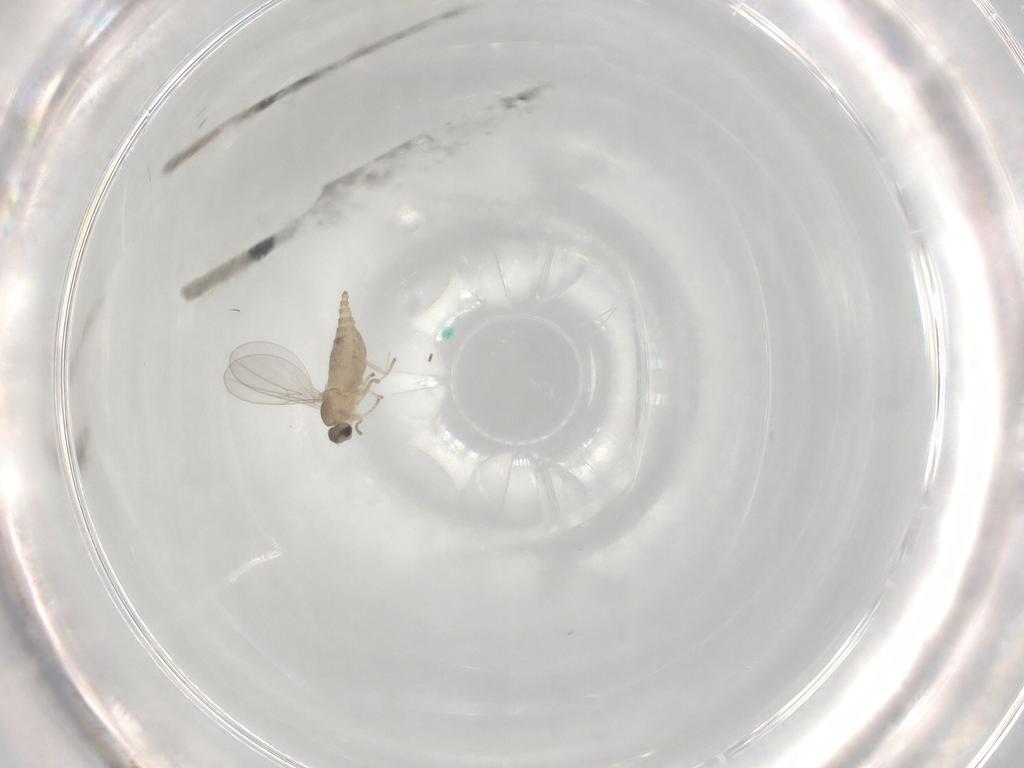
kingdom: Animalia
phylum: Arthropoda
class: Insecta
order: Diptera
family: Cecidomyiidae
